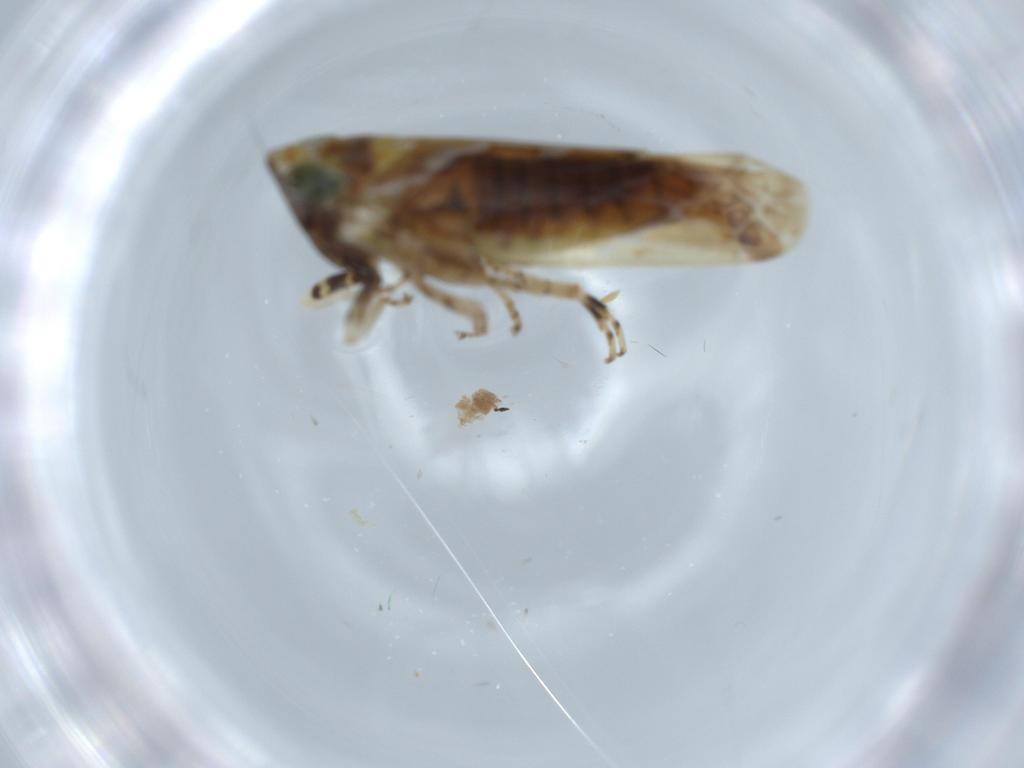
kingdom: Animalia
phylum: Arthropoda
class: Insecta
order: Hemiptera
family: Cicadellidae
